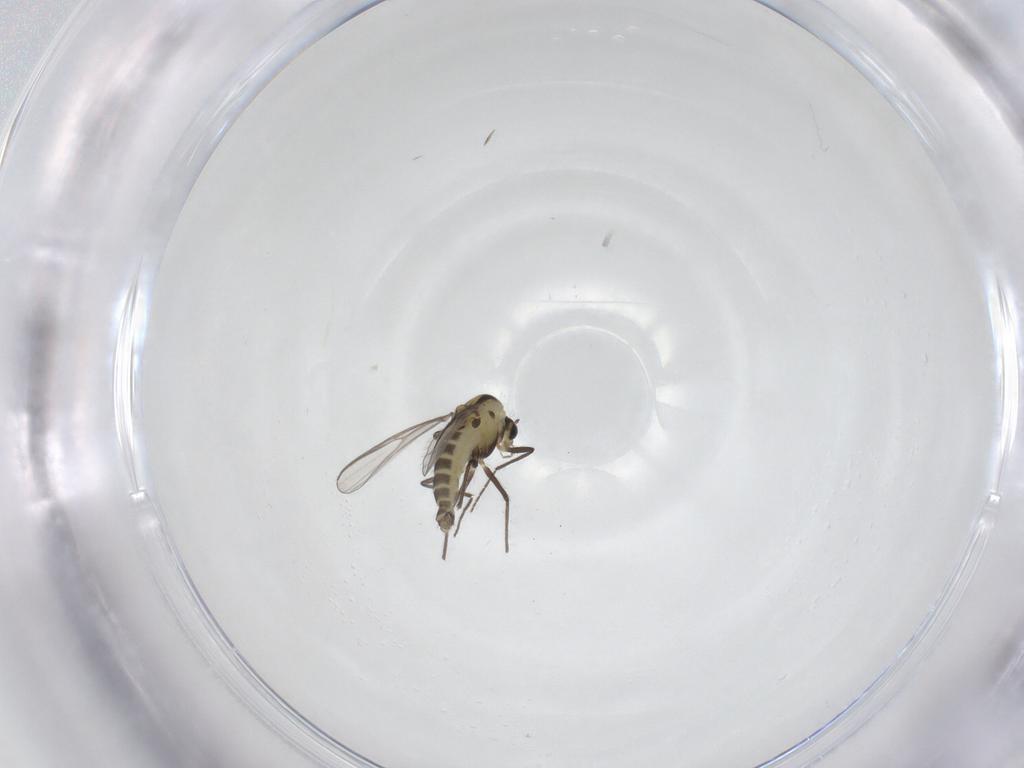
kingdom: Animalia
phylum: Arthropoda
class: Insecta
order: Diptera
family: Chironomidae
